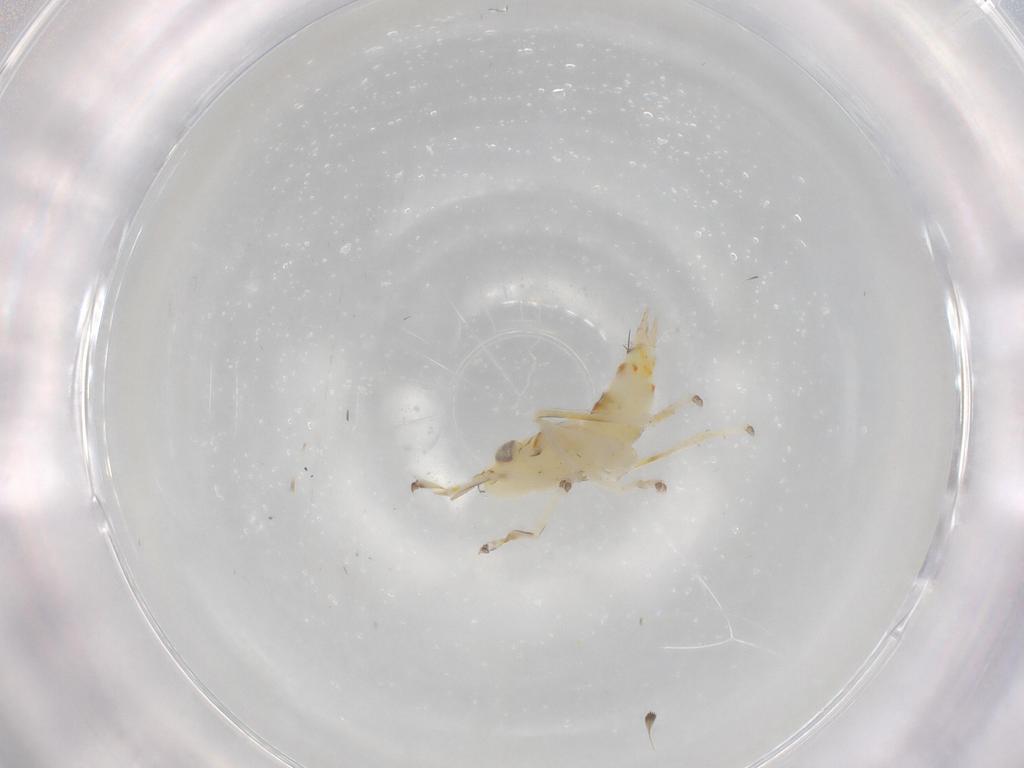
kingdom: Animalia
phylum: Arthropoda
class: Insecta
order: Hemiptera
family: Cicadellidae
